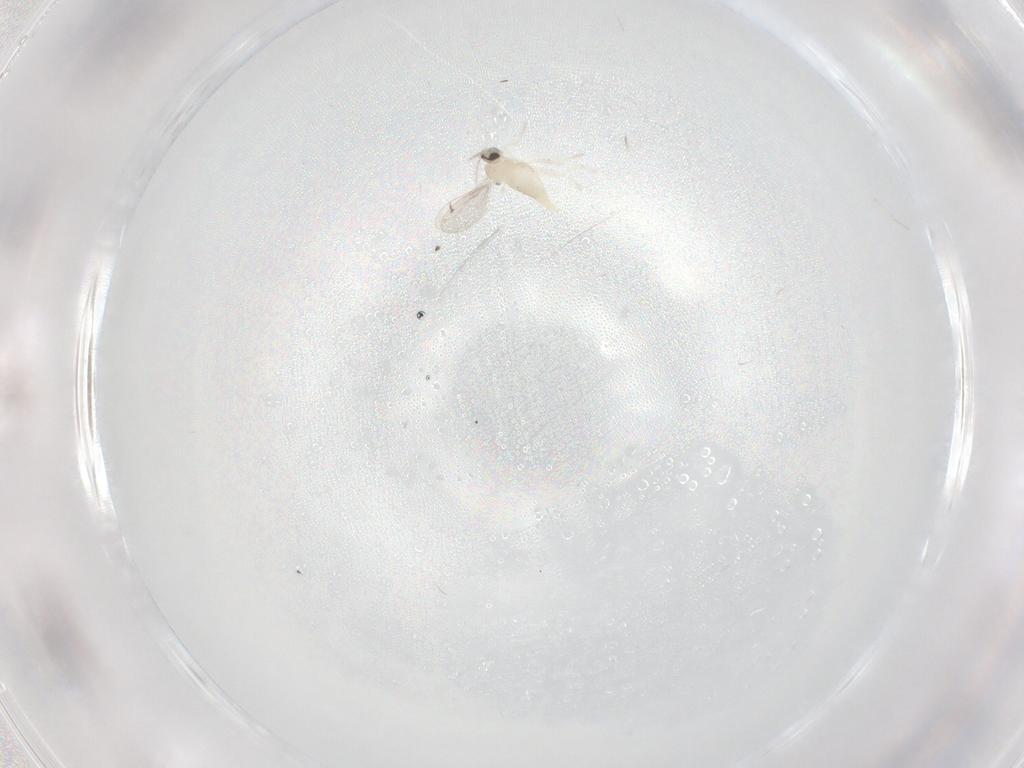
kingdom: Animalia
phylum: Arthropoda
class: Insecta
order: Diptera
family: Cecidomyiidae
